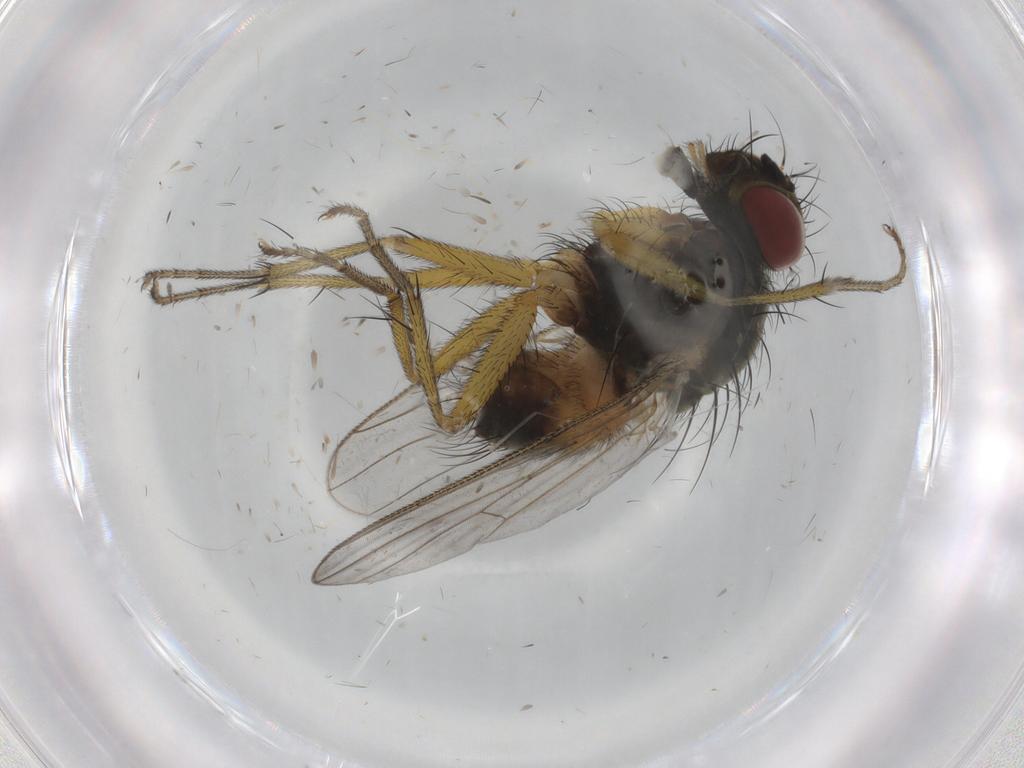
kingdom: Animalia
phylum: Arthropoda
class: Insecta
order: Diptera
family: Muscidae
